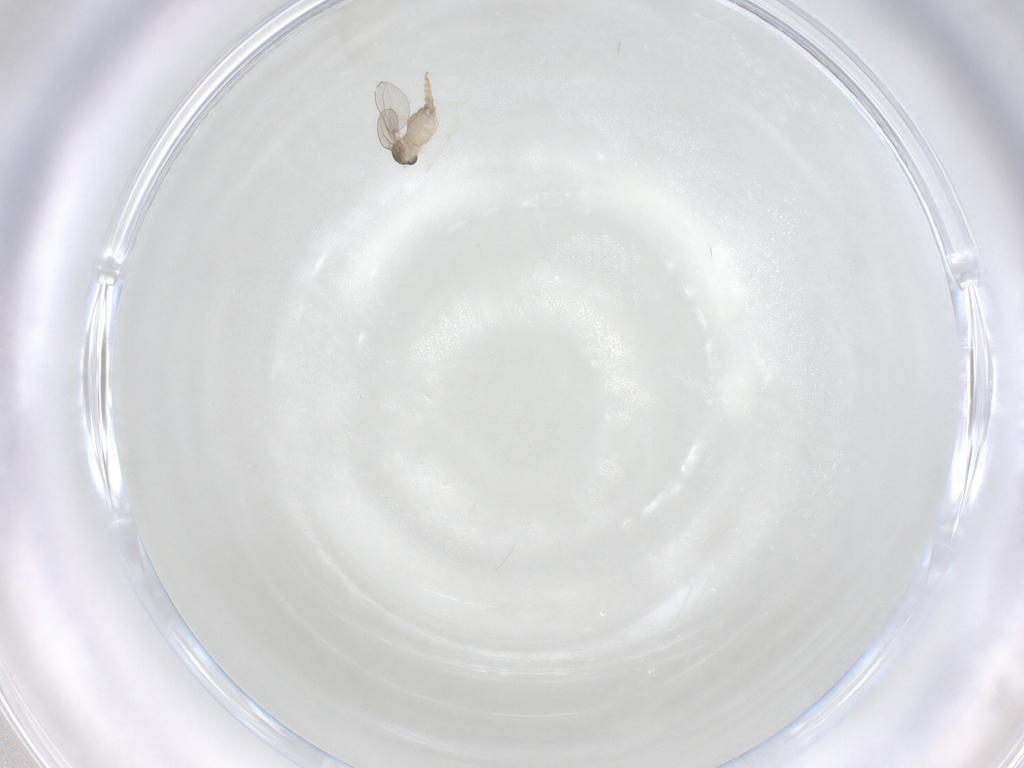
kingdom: Animalia
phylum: Arthropoda
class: Insecta
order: Diptera
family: Cecidomyiidae
